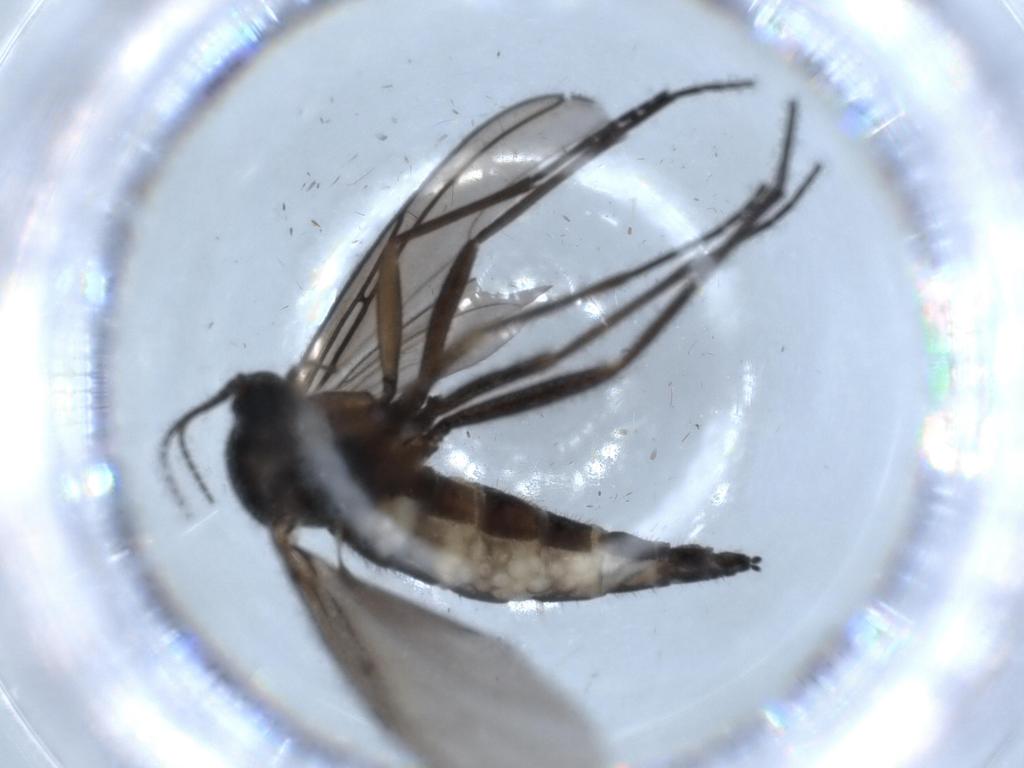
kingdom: Animalia
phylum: Arthropoda
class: Insecta
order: Diptera
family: Sciaridae
